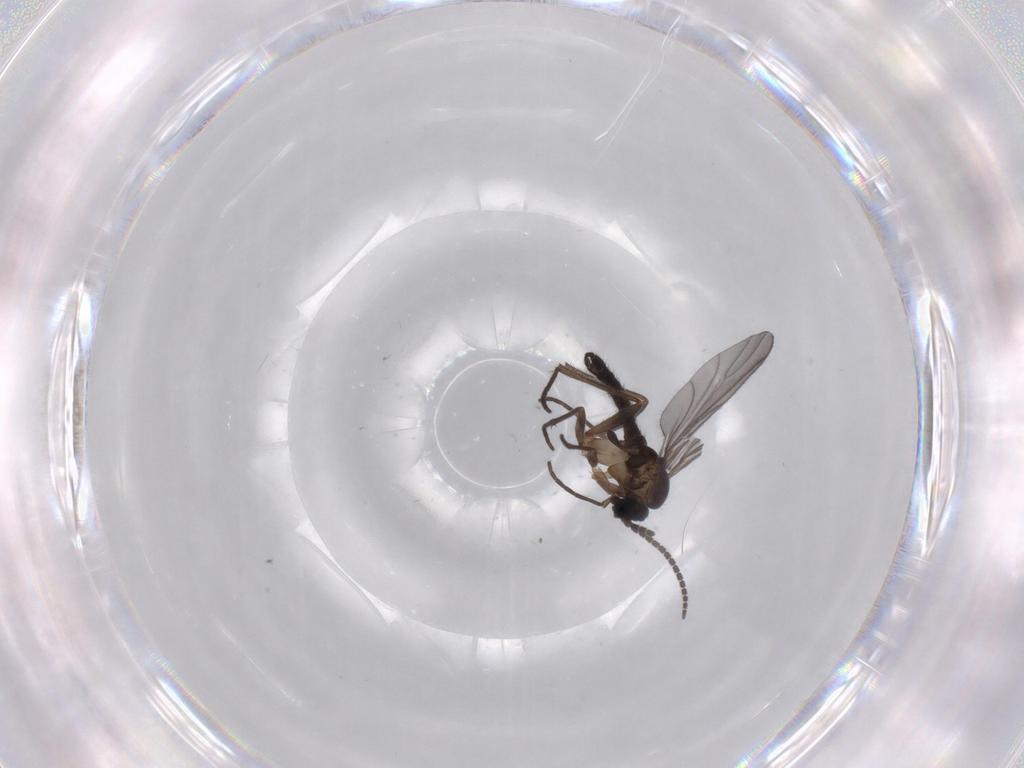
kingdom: Animalia
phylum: Arthropoda
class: Insecta
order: Diptera
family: Sciaridae
